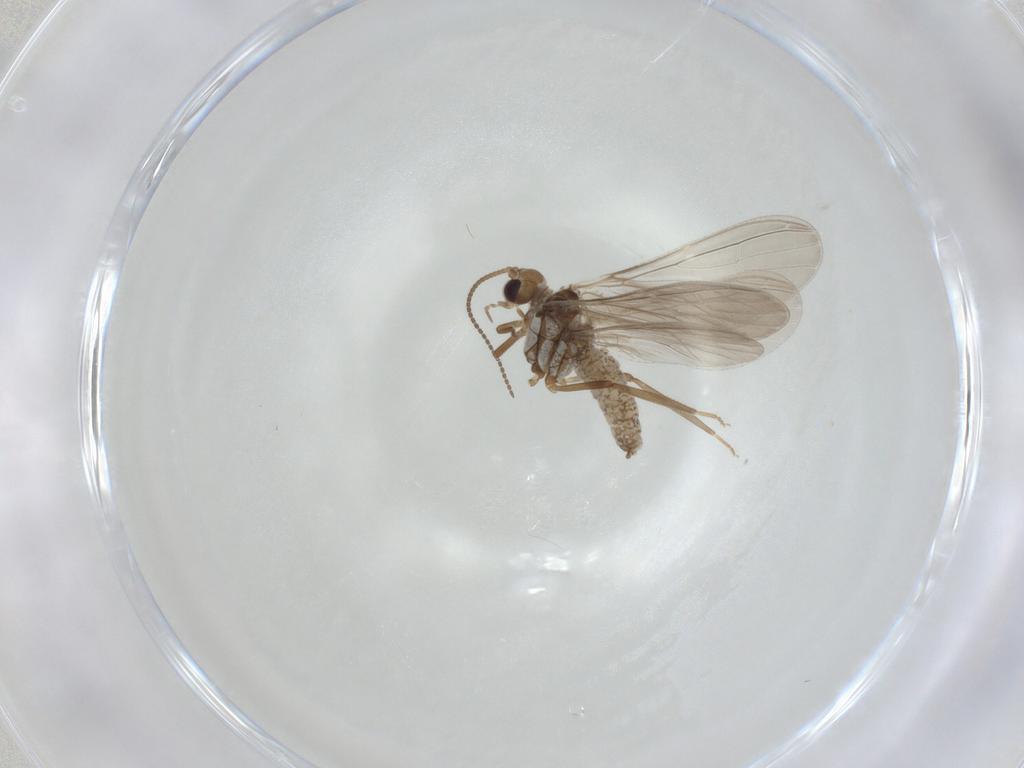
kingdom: Animalia
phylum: Arthropoda
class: Insecta
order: Neuroptera
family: Coniopterygidae
